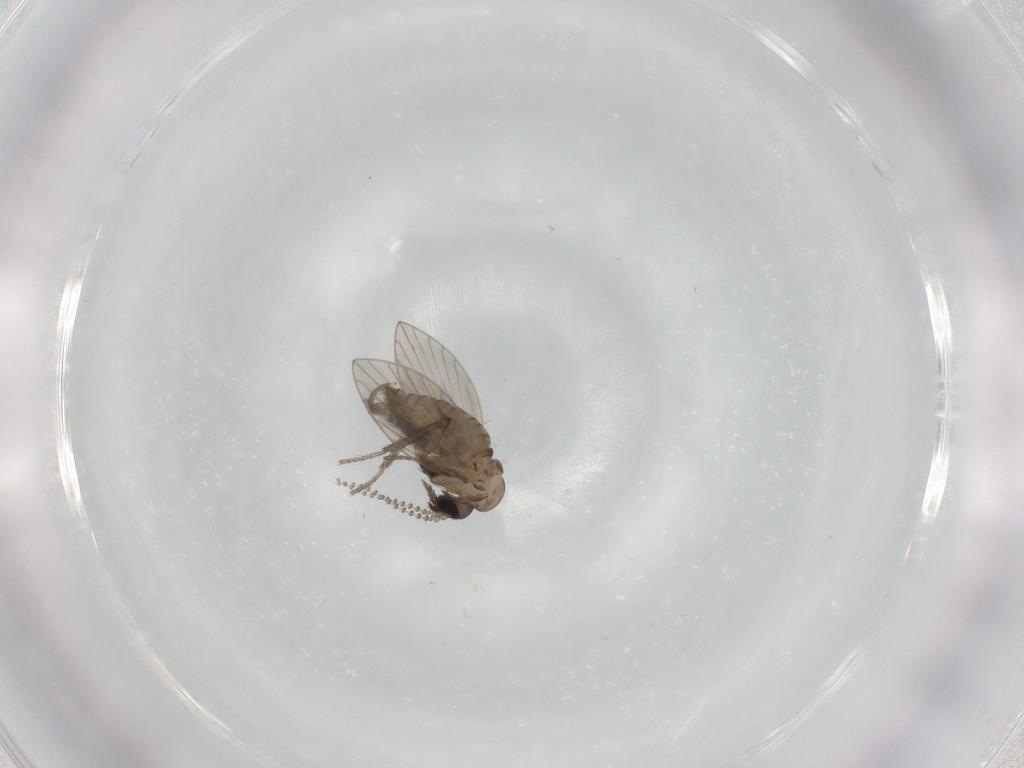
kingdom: Animalia
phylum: Arthropoda
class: Insecta
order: Diptera
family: Psychodidae
